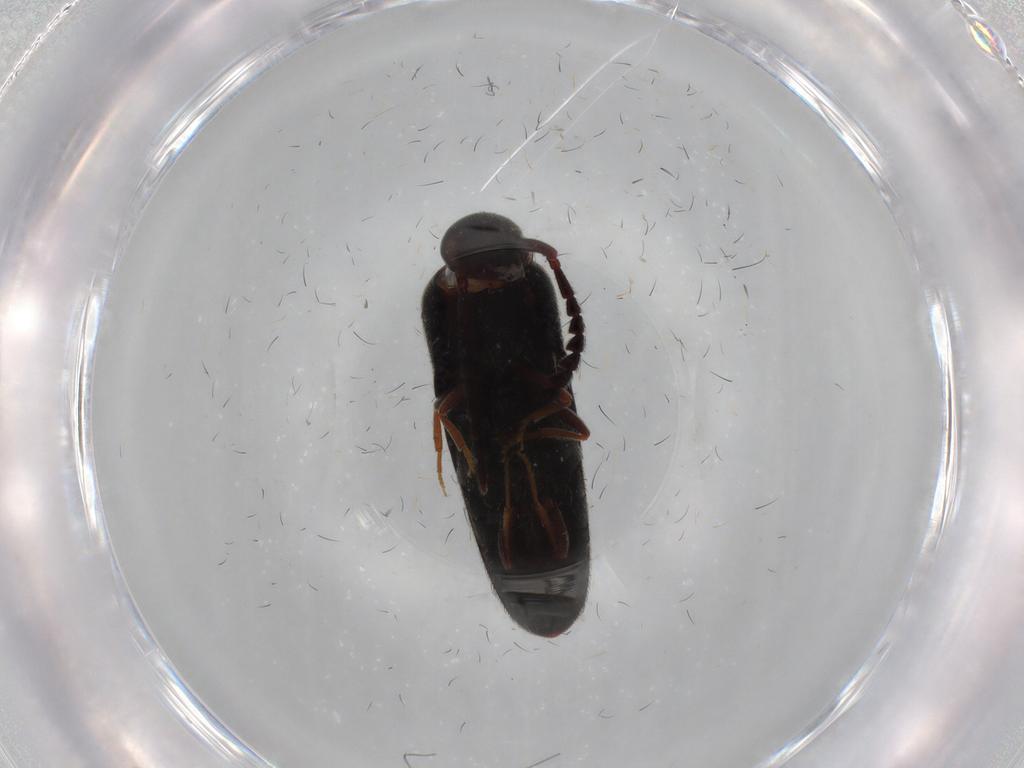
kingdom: Animalia
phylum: Arthropoda
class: Insecta
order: Coleoptera
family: Eucnemidae
